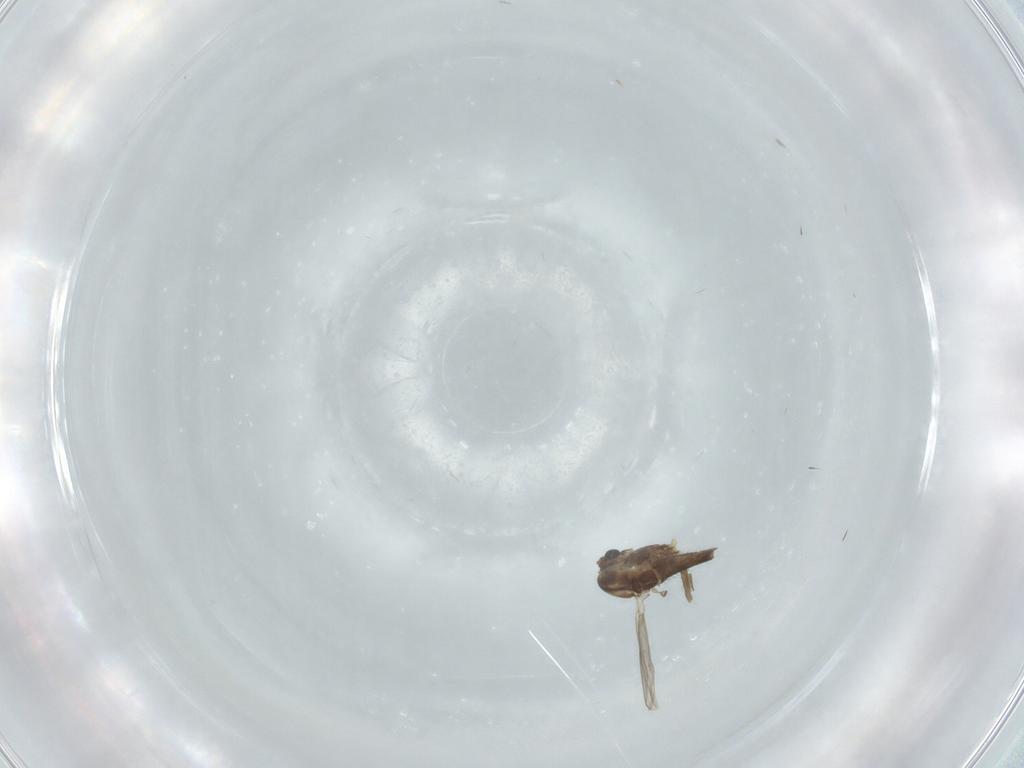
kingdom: Animalia
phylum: Arthropoda
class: Insecta
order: Diptera
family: Chironomidae
